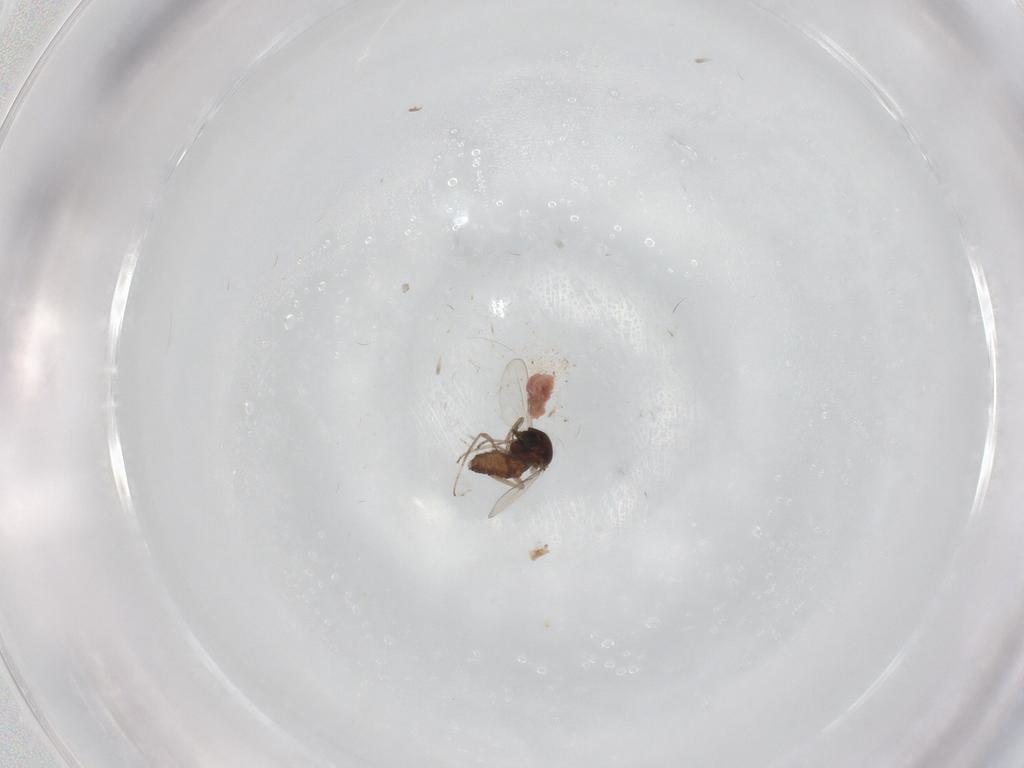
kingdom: Animalia
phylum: Arthropoda
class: Insecta
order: Diptera
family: Ceratopogonidae
